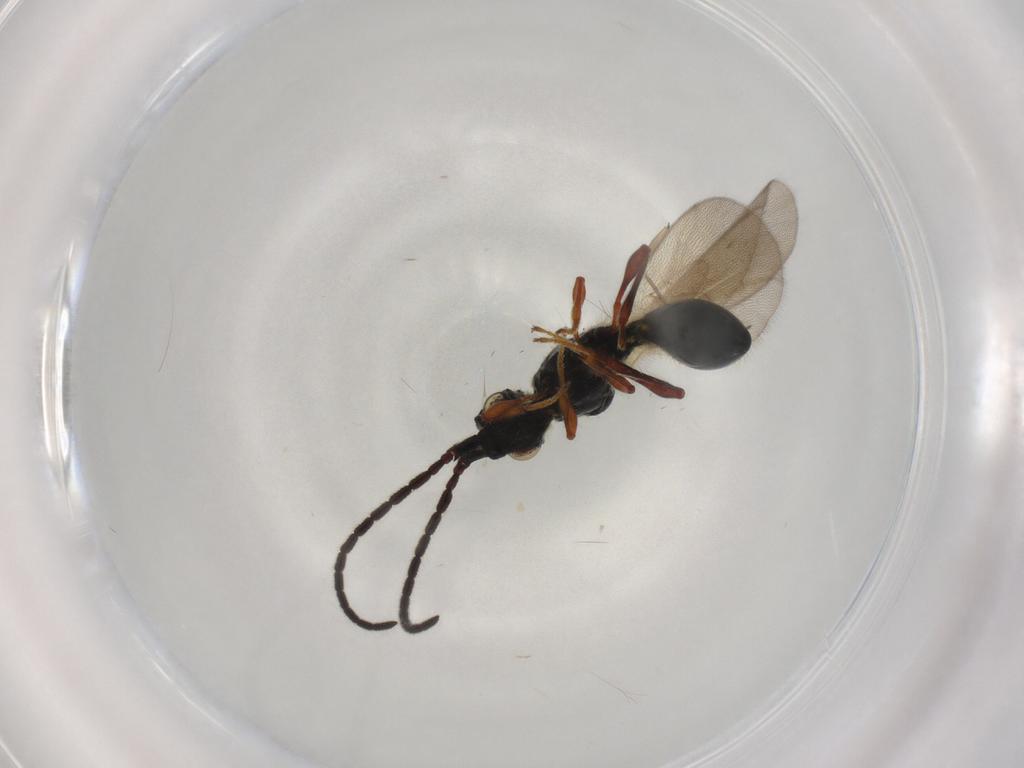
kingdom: Animalia
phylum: Arthropoda
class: Insecta
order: Hymenoptera
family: Diapriidae
